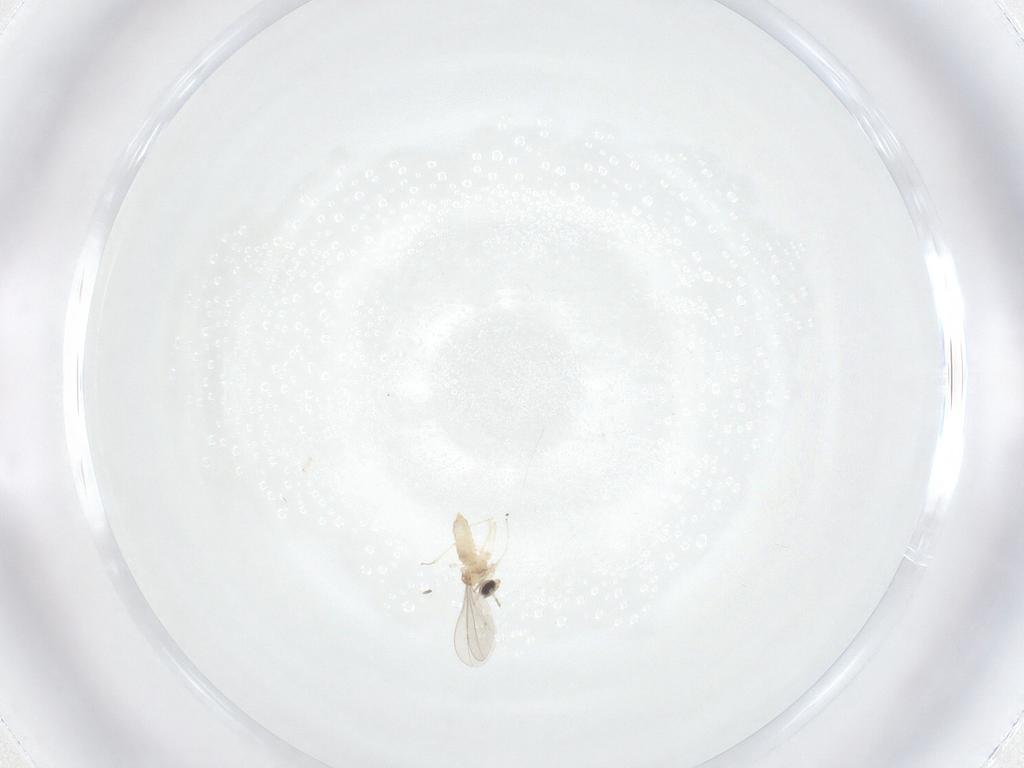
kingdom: Animalia
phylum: Arthropoda
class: Insecta
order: Diptera
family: Cecidomyiidae
